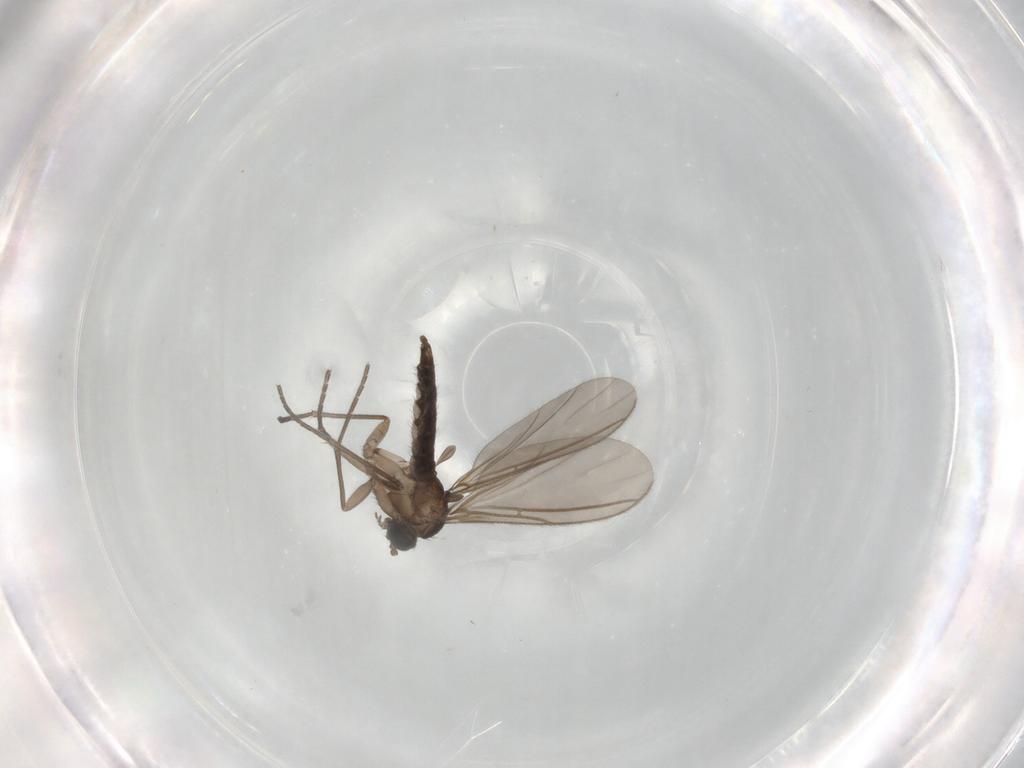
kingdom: Animalia
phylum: Arthropoda
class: Insecta
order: Diptera
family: Sciaridae
